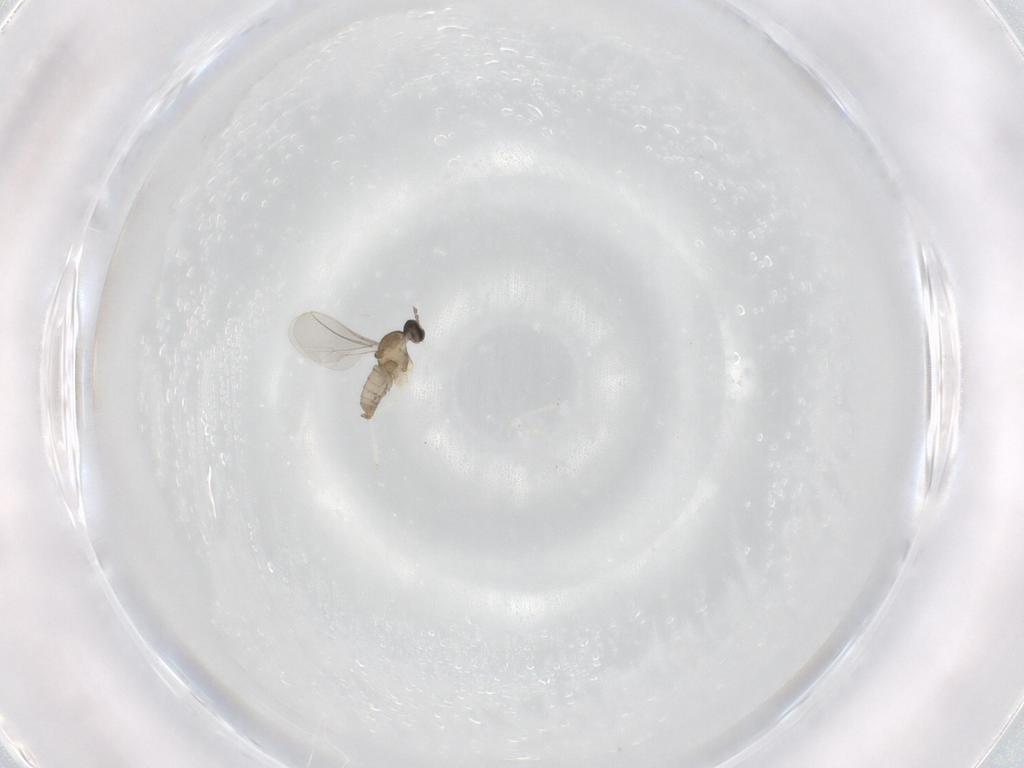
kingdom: Animalia
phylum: Arthropoda
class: Insecta
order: Diptera
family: Cecidomyiidae
